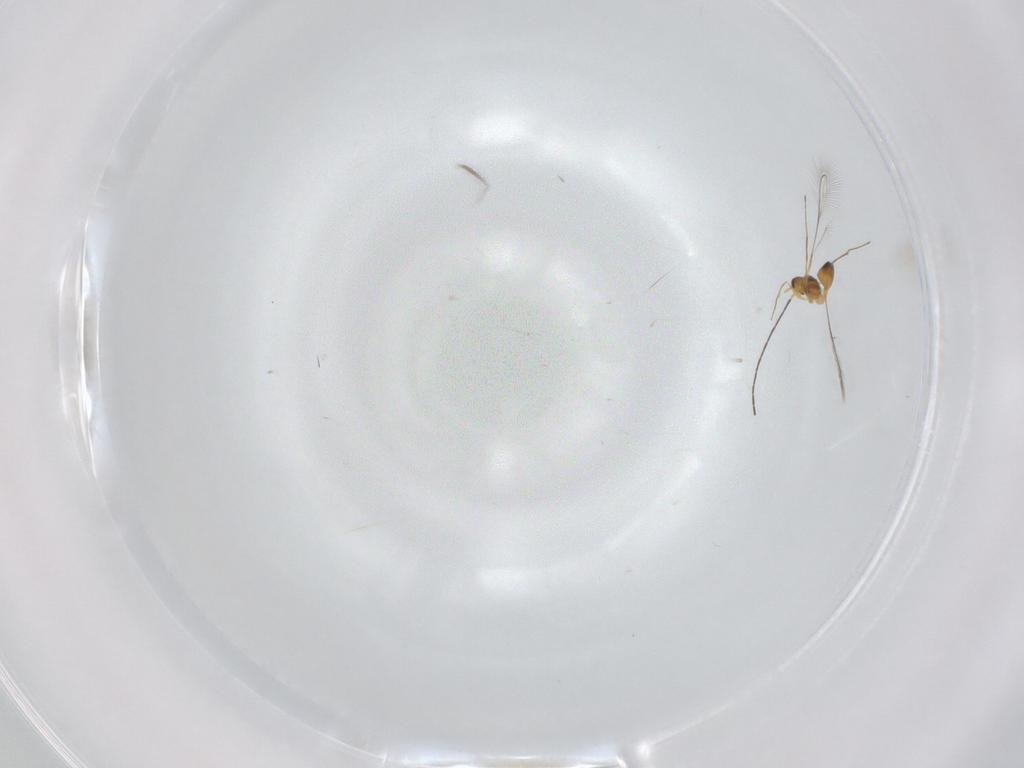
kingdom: Animalia
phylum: Arthropoda
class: Insecta
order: Hymenoptera
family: Mymaridae
